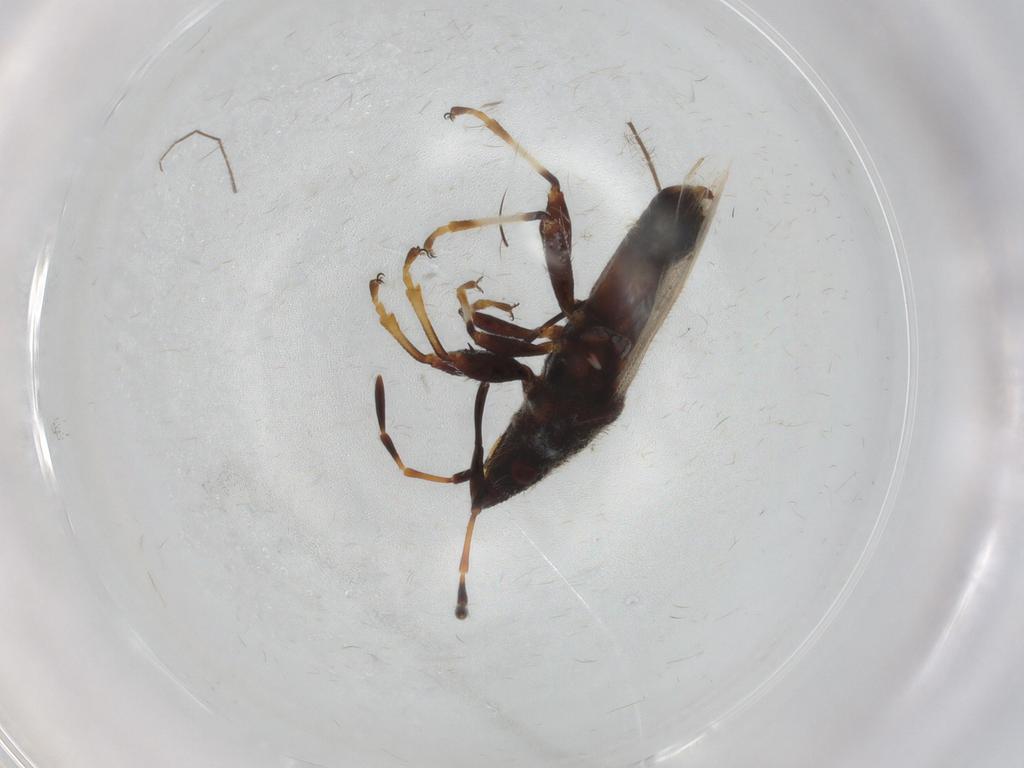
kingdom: Animalia
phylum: Arthropoda
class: Insecta
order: Hemiptera
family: Oxycarenidae
